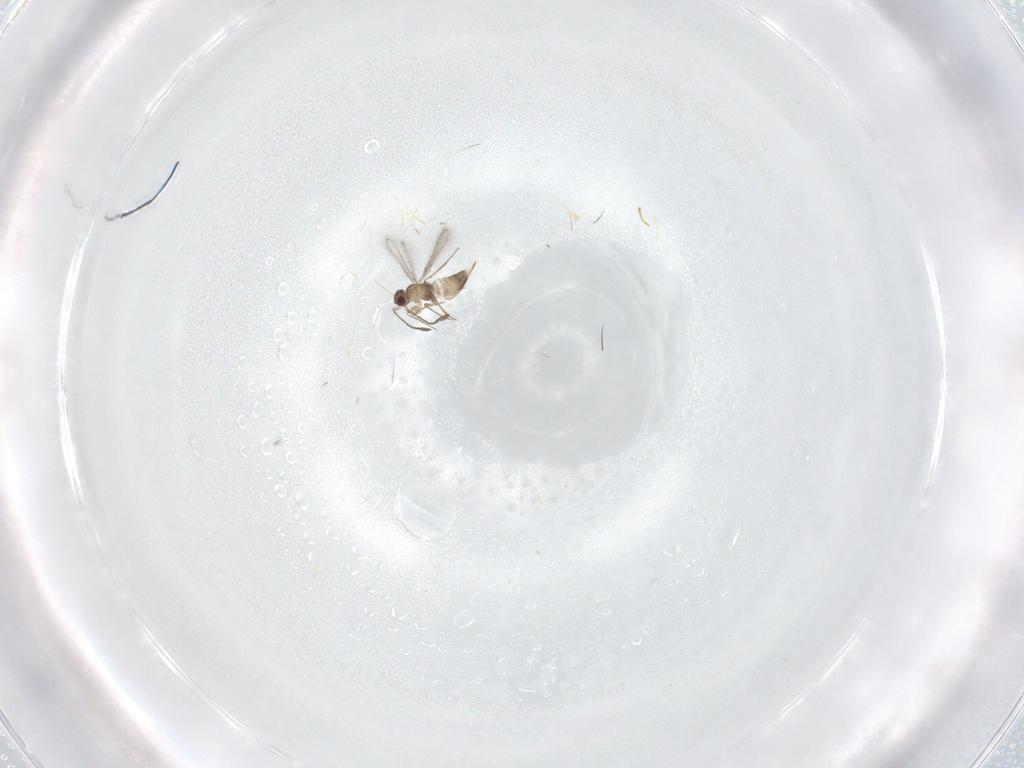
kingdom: Animalia
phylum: Arthropoda
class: Insecta
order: Hymenoptera
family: Mymaridae
